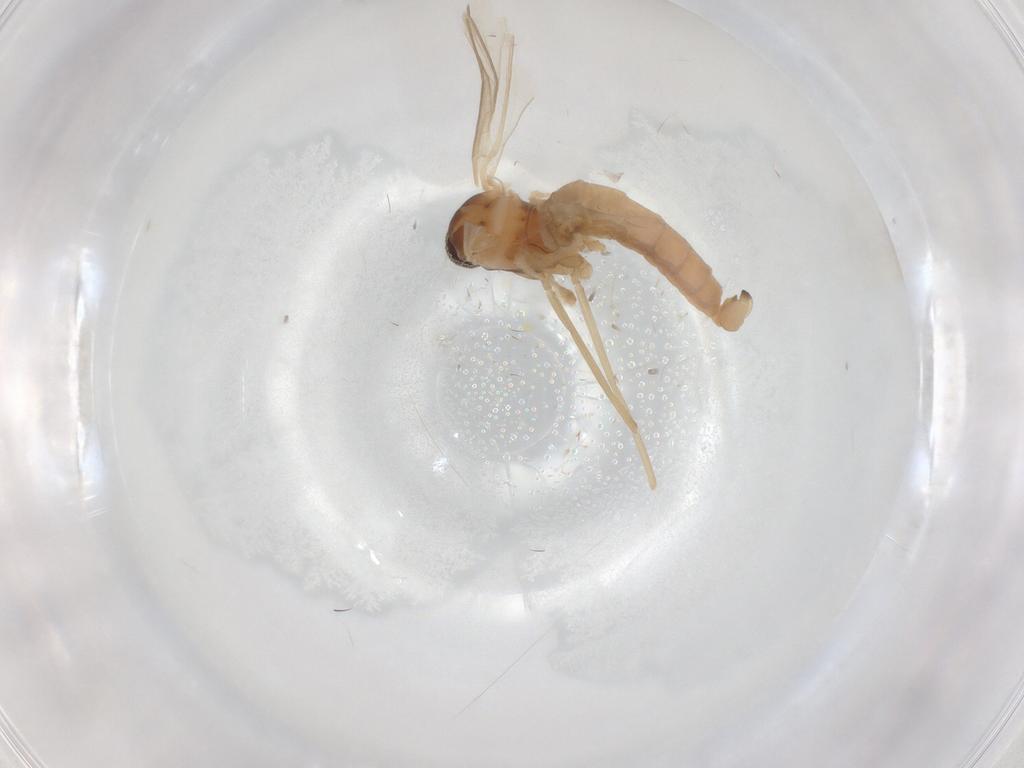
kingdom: Animalia
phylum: Arthropoda
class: Insecta
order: Diptera
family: Cecidomyiidae
